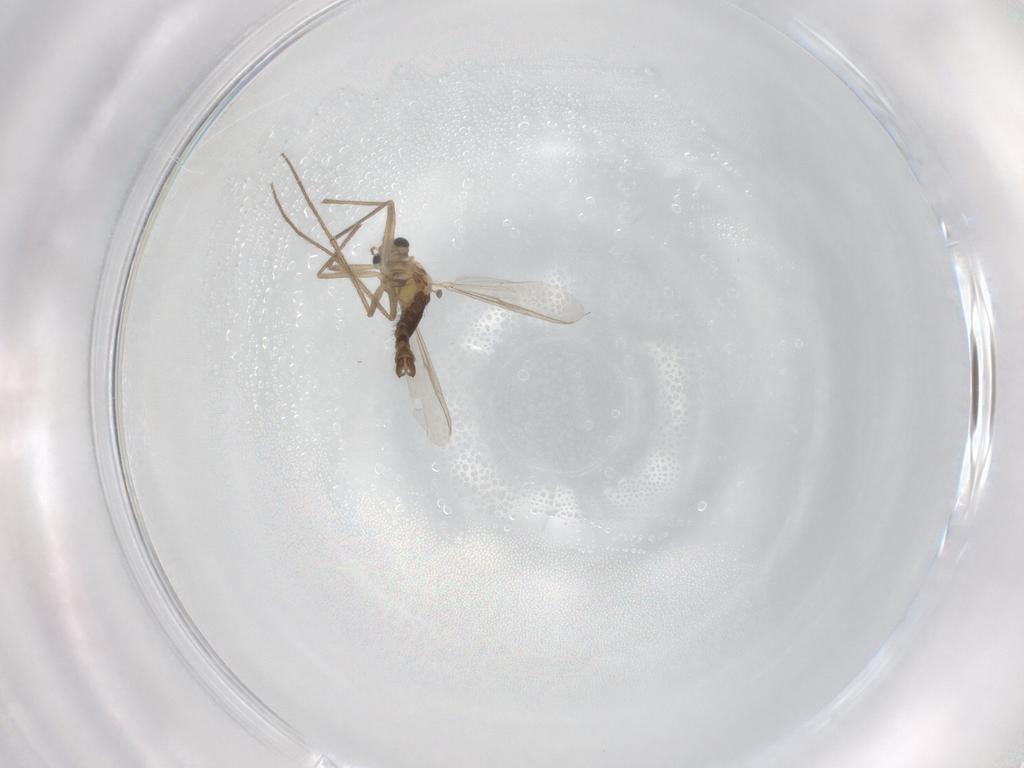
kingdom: Animalia
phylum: Arthropoda
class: Insecta
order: Diptera
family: Chironomidae
